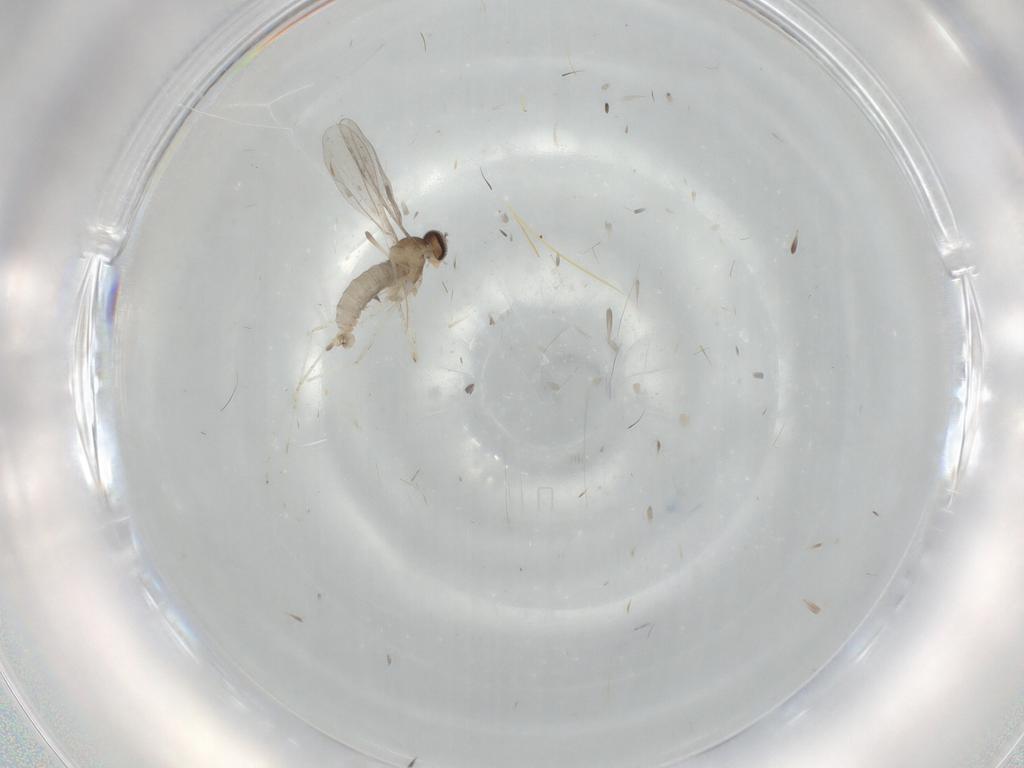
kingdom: Animalia
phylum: Arthropoda
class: Insecta
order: Diptera
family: Cecidomyiidae
